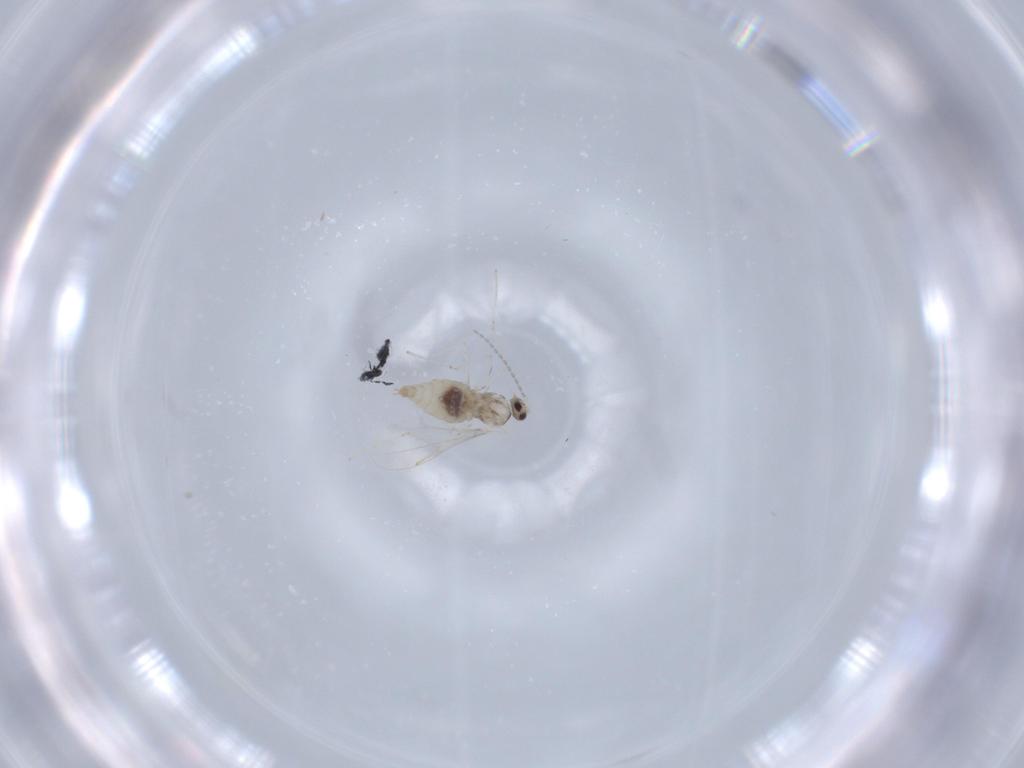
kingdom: Animalia
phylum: Arthropoda
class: Insecta
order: Diptera
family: Cecidomyiidae
